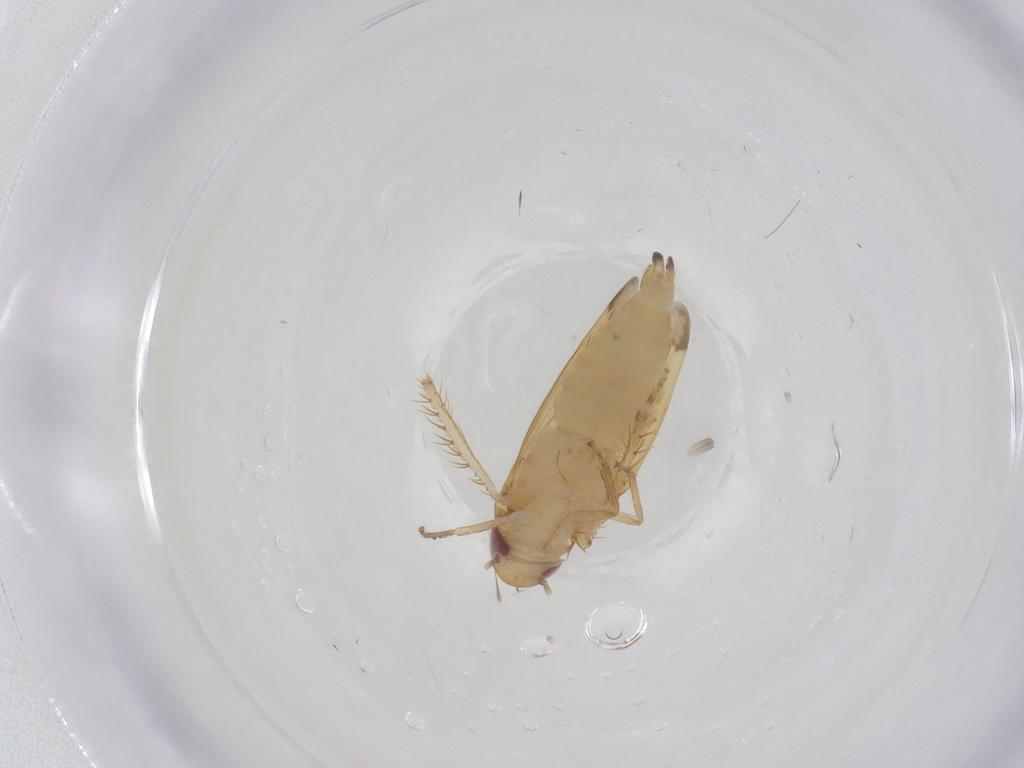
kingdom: Animalia
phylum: Arthropoda
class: Insecta
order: Hemiptera
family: Cicadellidae
